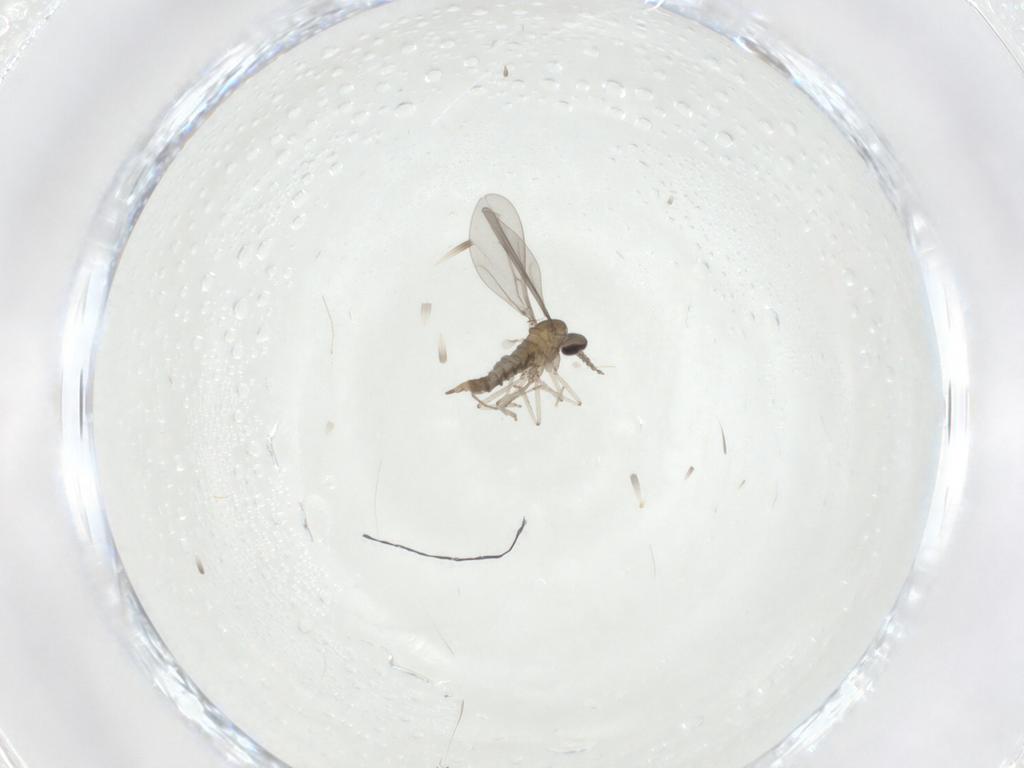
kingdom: Animalia
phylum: Arthropoda
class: Insecta
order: Diptera
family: Cecidomyiidae
